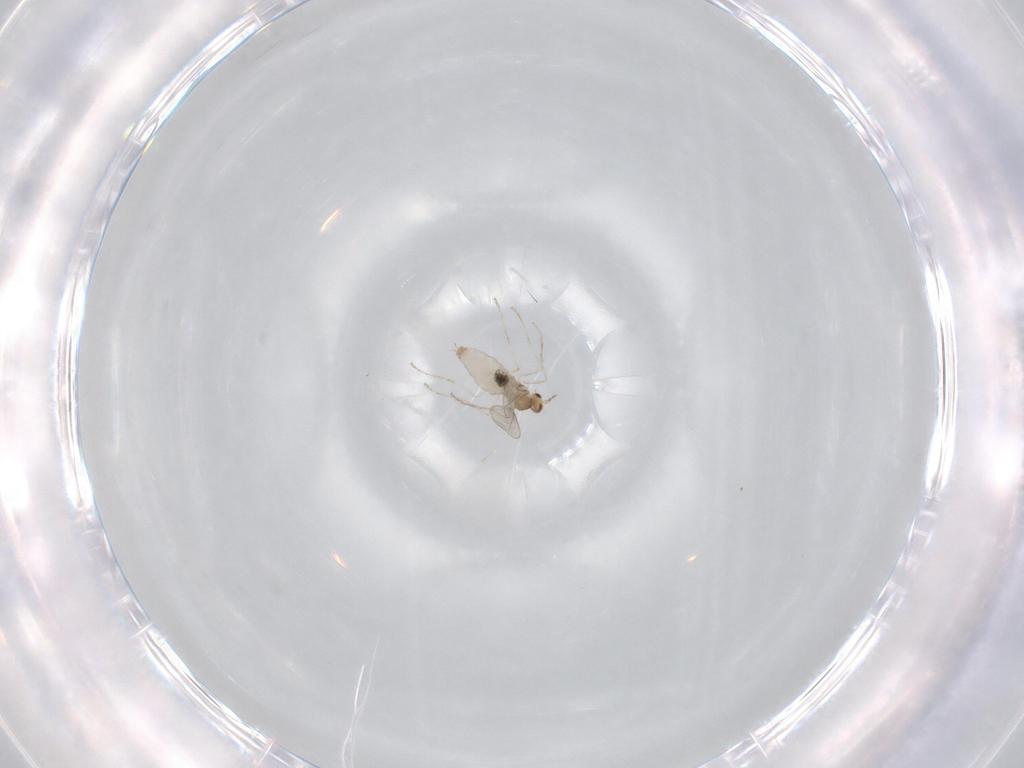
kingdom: Animalia
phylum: Arthropoda
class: Insecta
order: Diptera
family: Cecidomyiidae
